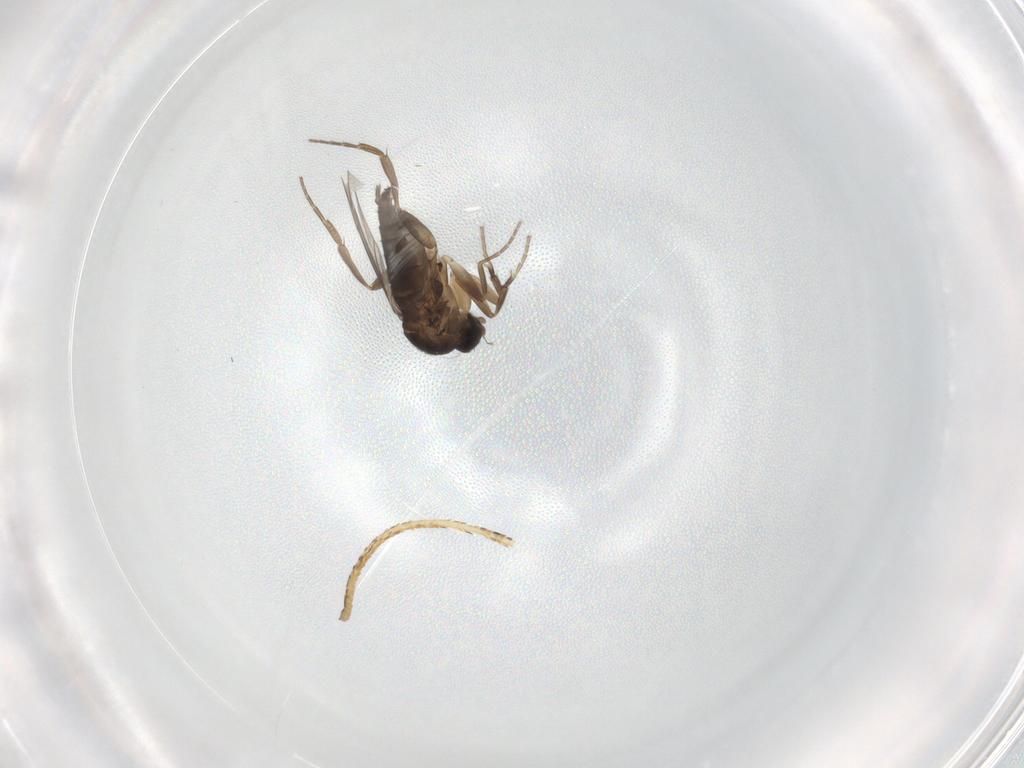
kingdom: Animalia
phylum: Arthropoda
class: Insecta
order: Diptera
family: Phoridae
